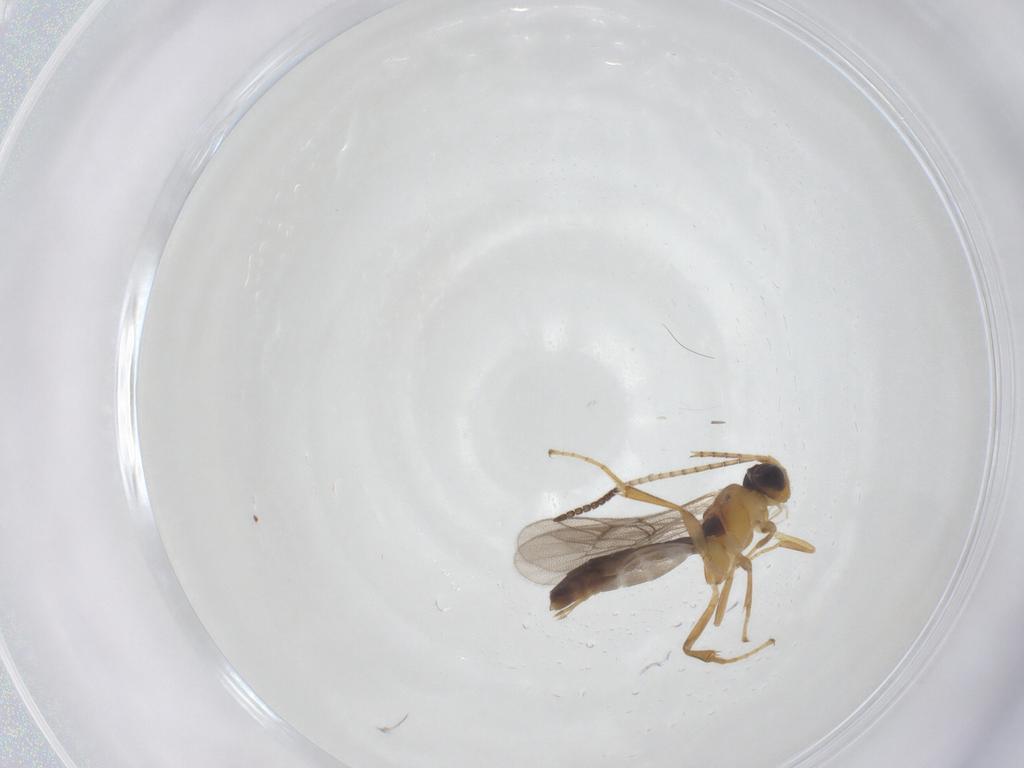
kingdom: Animalia
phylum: Arthropoda
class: Insecta
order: Hymenoptera
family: Ichneumonidae
